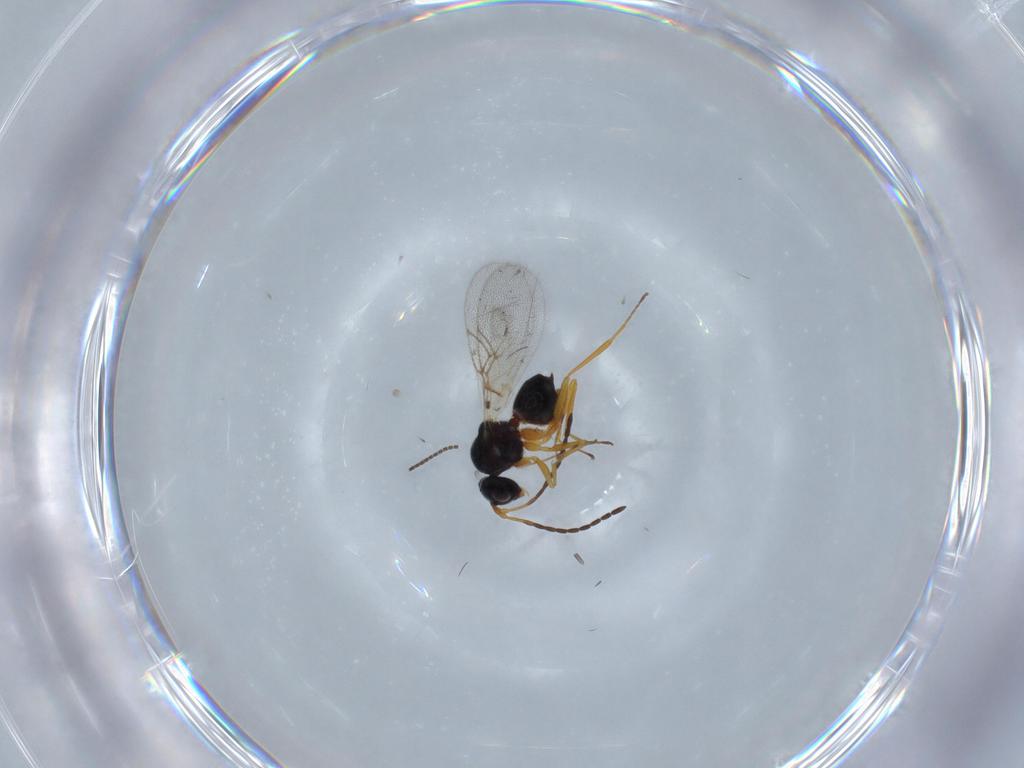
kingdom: Animalia
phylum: Arthropoda
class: Insecta
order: Hymenoptera
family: Figitidae
